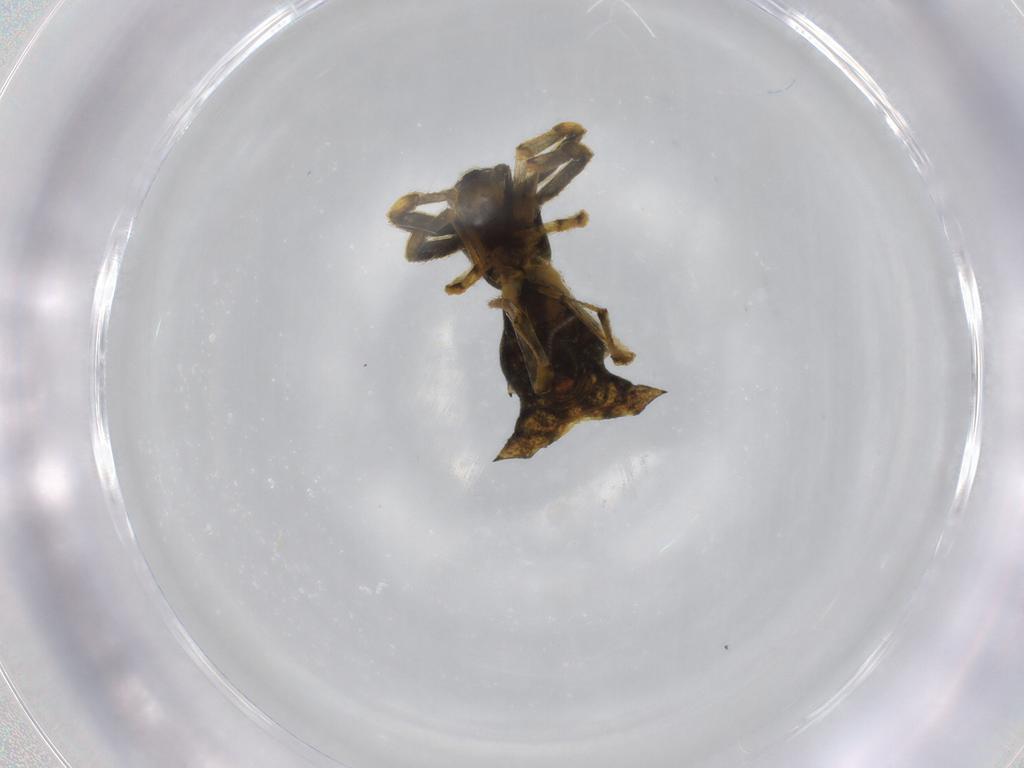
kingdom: Animalia
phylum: Arthropoda
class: Arachnida
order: Araneae
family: Araneidae
